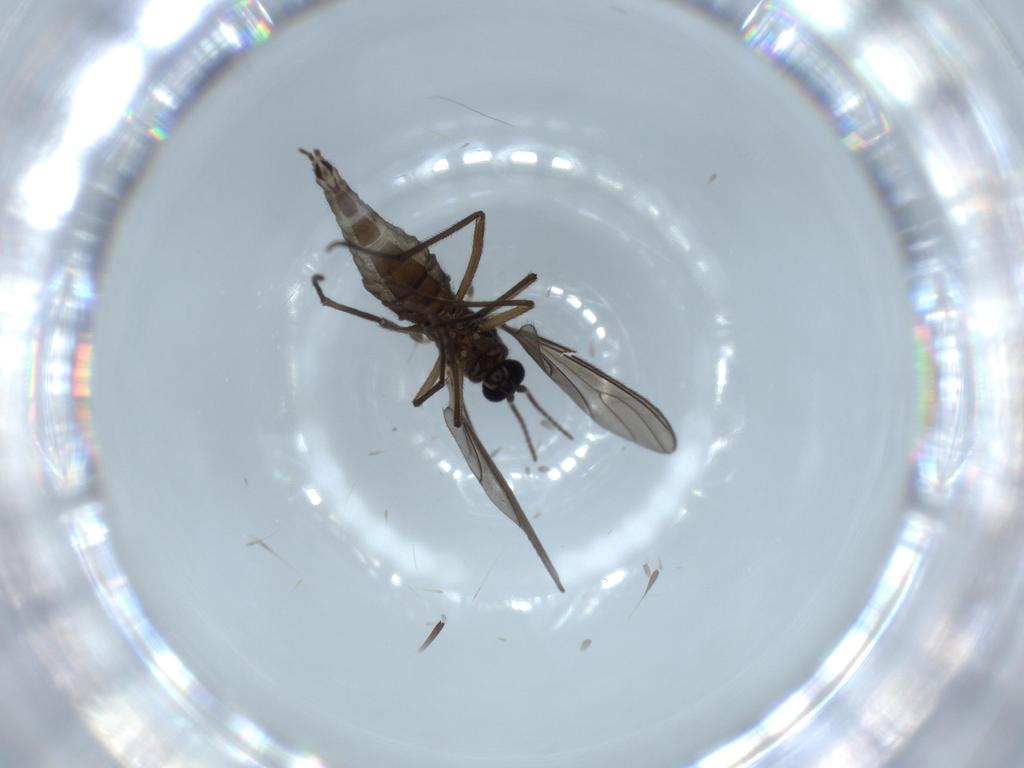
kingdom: Animalia
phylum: Arthropoda
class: Insecta
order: Diptera
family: Sciaridae
